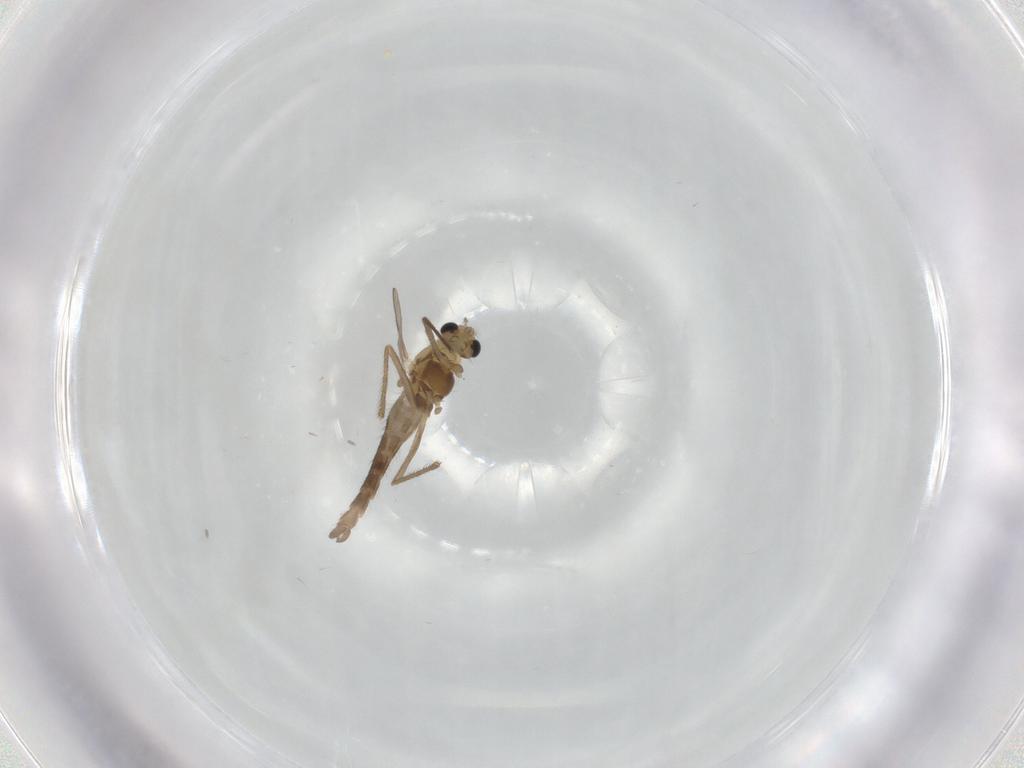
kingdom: Animalia
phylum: Arthropoda
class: Insecta
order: Diptera
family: Chironomidae
